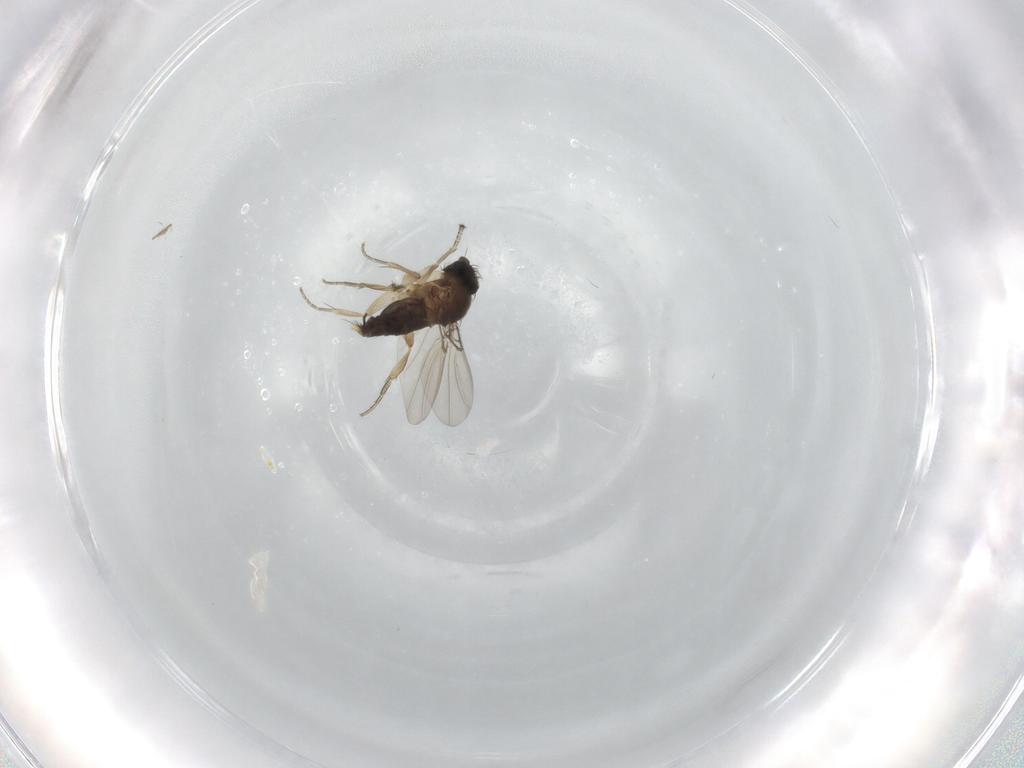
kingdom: Animalia
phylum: Arthropoda
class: Insecta
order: Diptera
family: Phoridae
